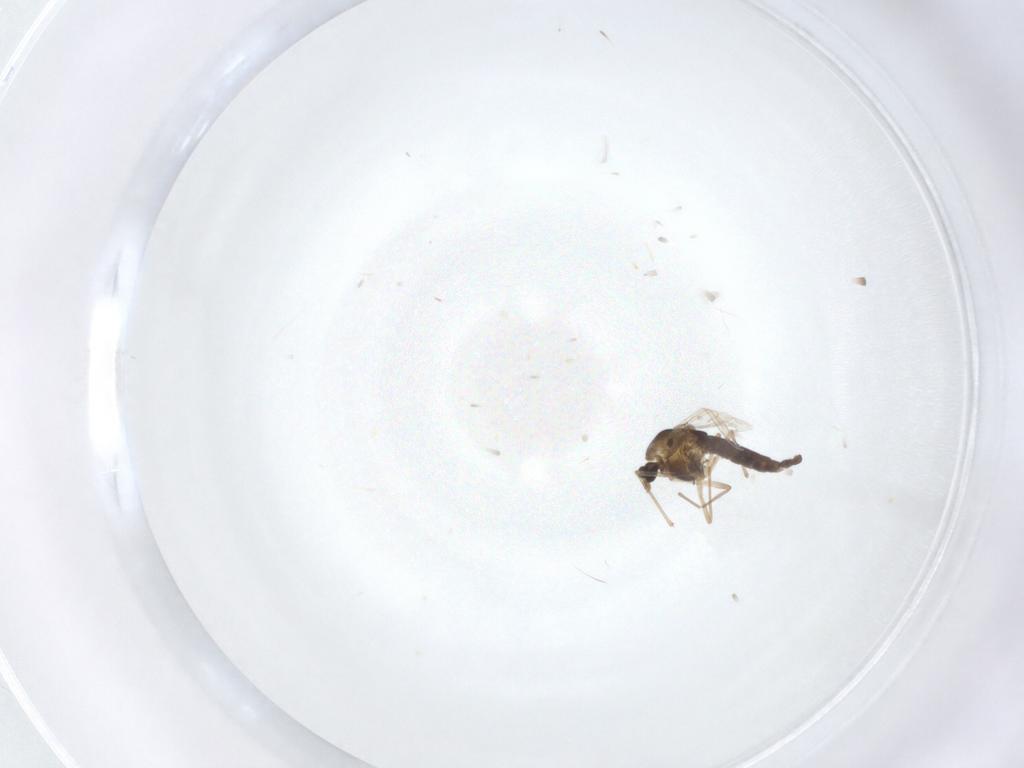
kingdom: Animalia
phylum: Arthropoda
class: Insecta
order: Diptera
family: Chironomidae
